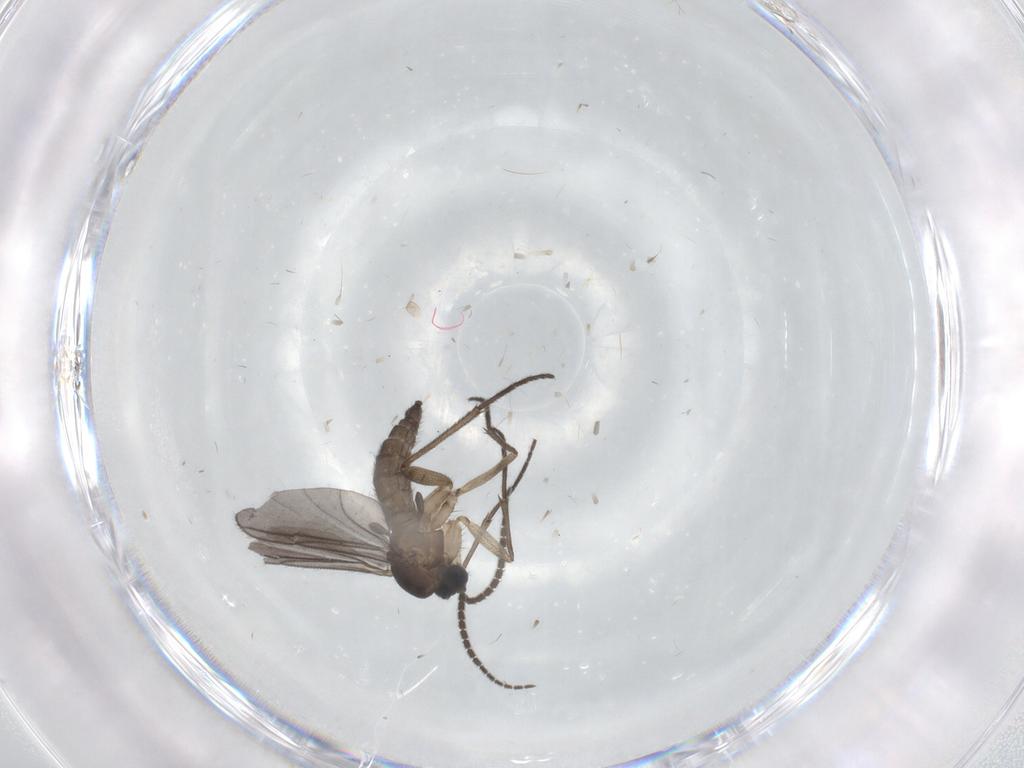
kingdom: Animalia
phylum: Arthropoda
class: Insecta
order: Diptera
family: Sciaridae
